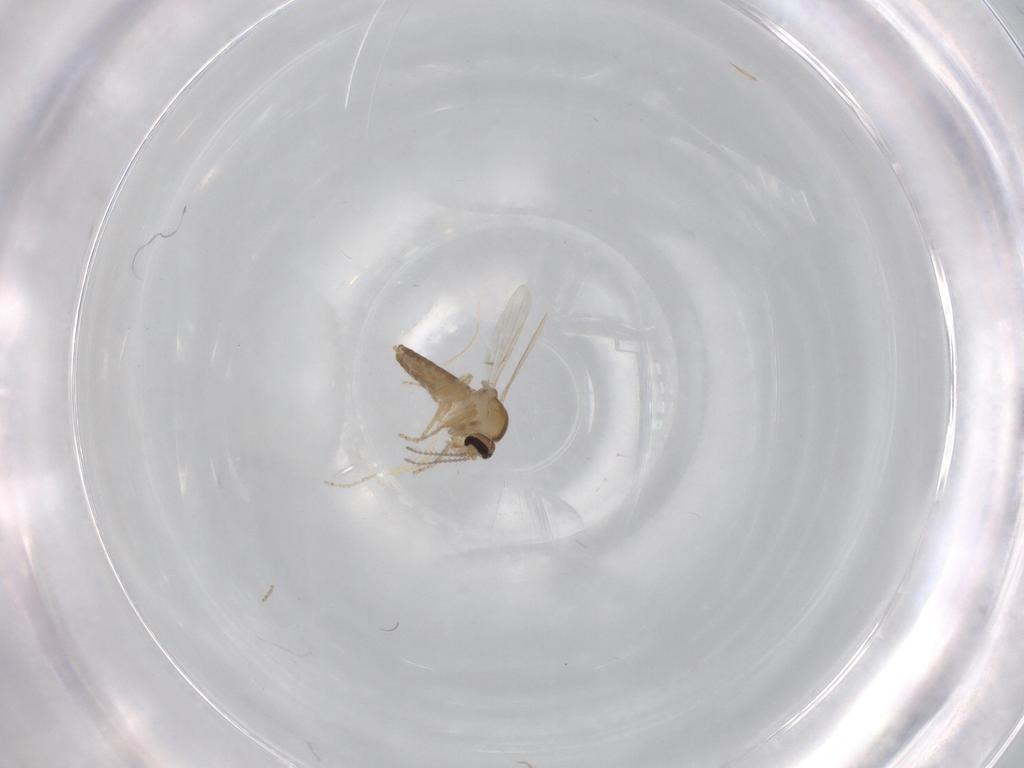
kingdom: Animalia
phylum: Arthropoda
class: Insecta
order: Diptera
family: Ceratopogonidae
